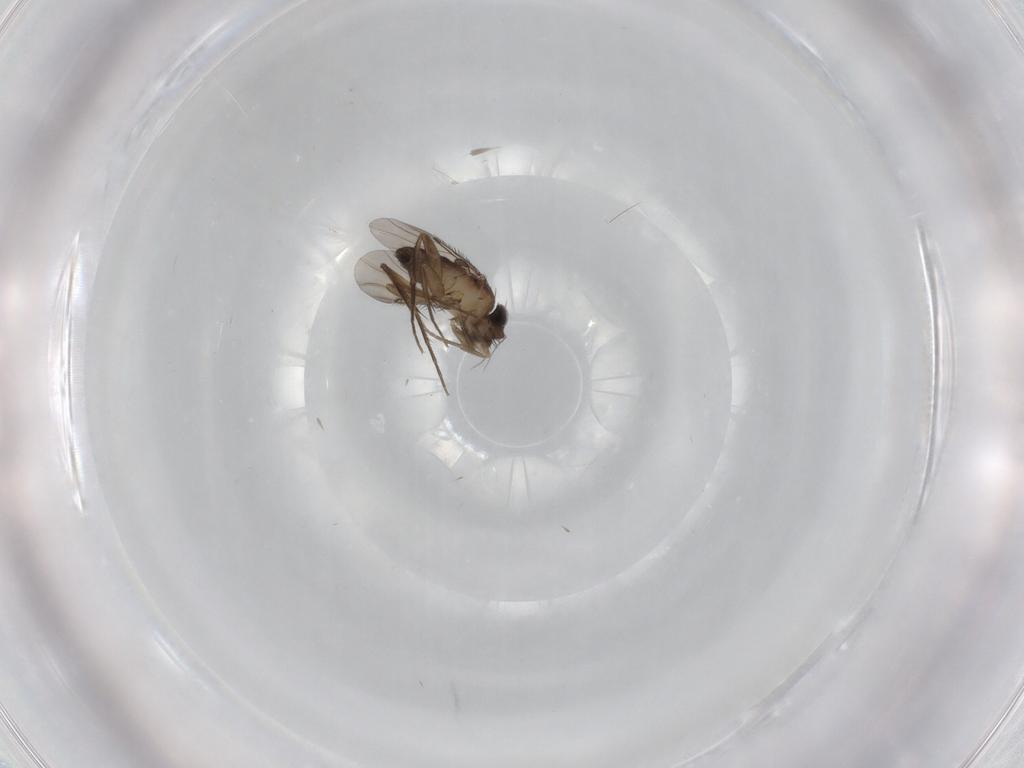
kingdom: Animalia
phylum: Arthropoda
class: Insecta
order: Diptera
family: Phoridae
